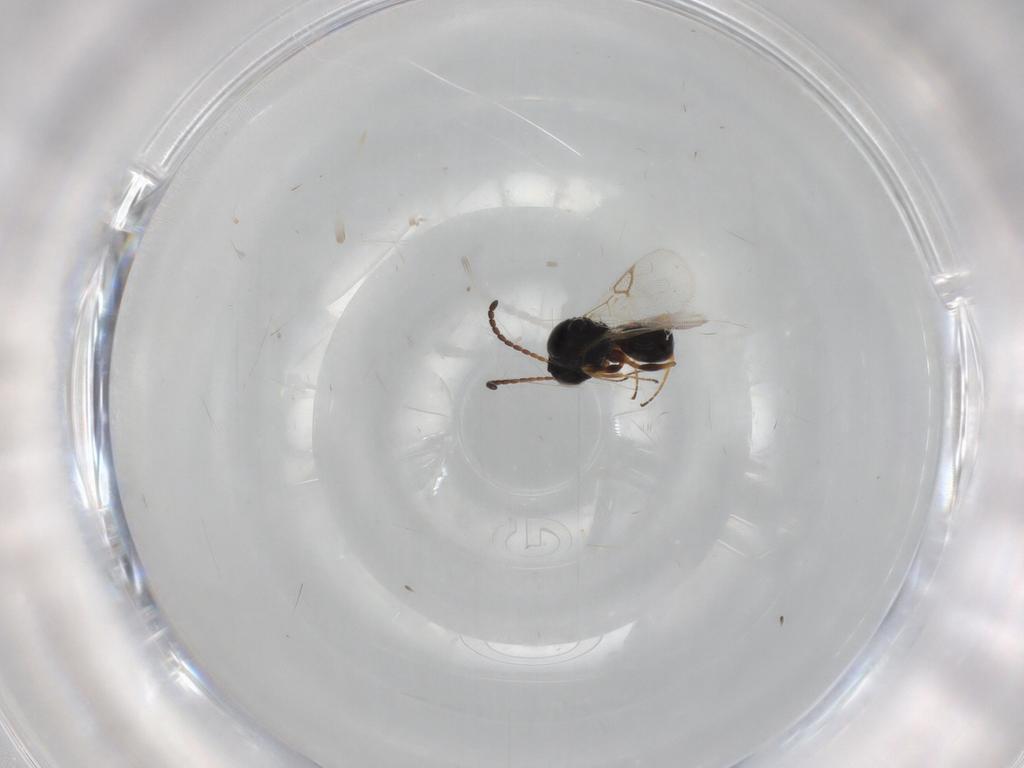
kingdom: Animalia
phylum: Arthropoda
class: Insecta
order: Hymenoptera
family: Figitidae
